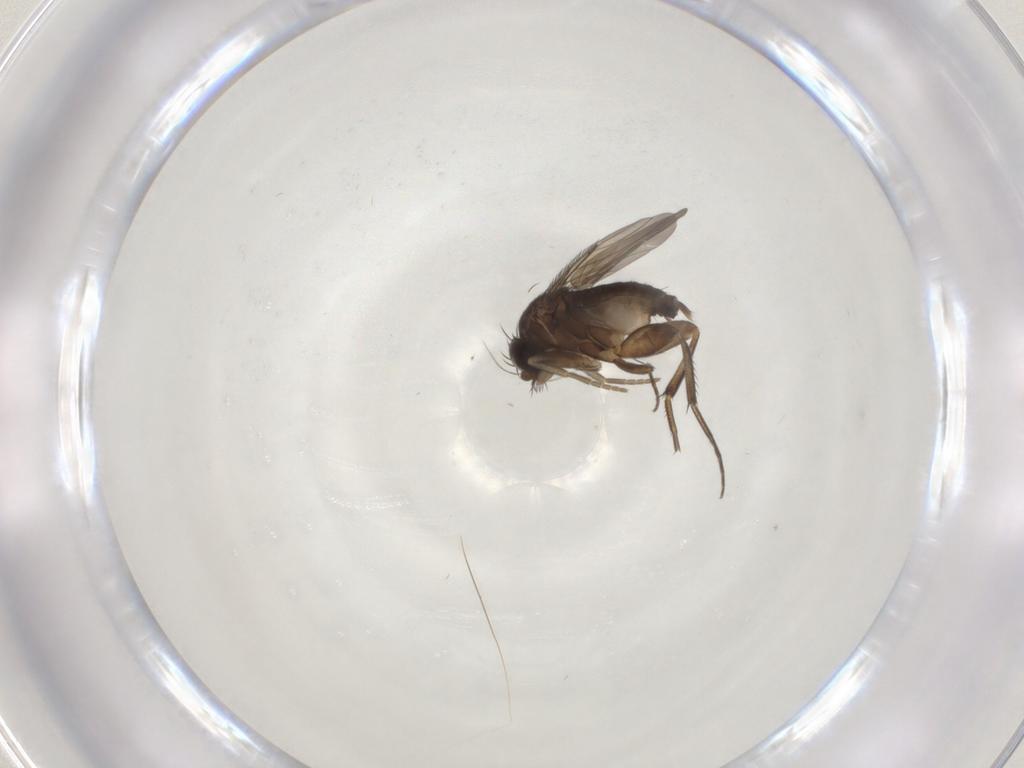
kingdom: Animalia
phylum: Arthropoda
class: Insecta
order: Diptera
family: Phoridae
